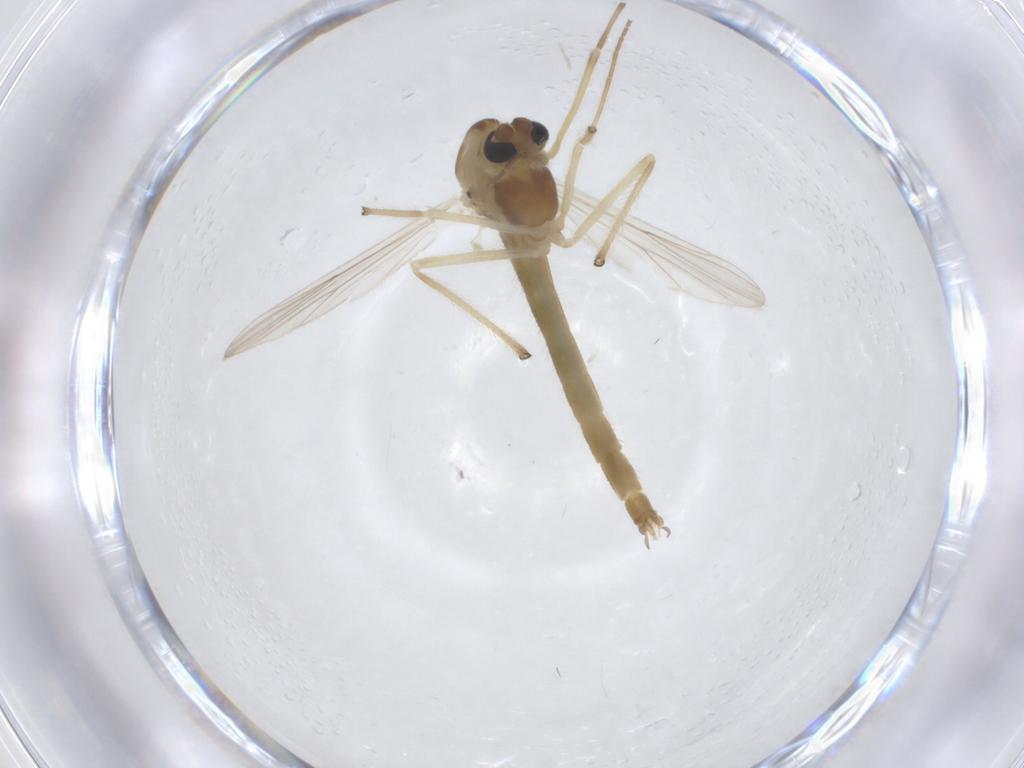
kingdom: Animalia
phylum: Arthropoda
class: Insecta
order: Diptera
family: Chironomidae
